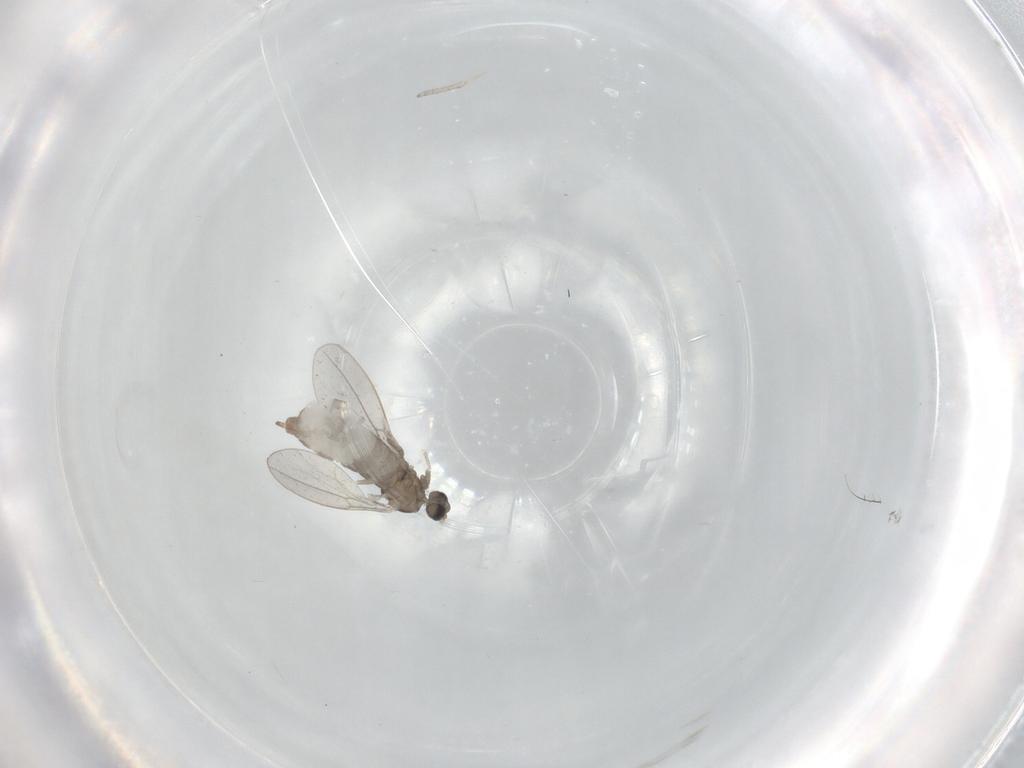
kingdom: Animalia
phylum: Arthropoda
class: Insecta
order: Diptera
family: Cecidomyiidae
